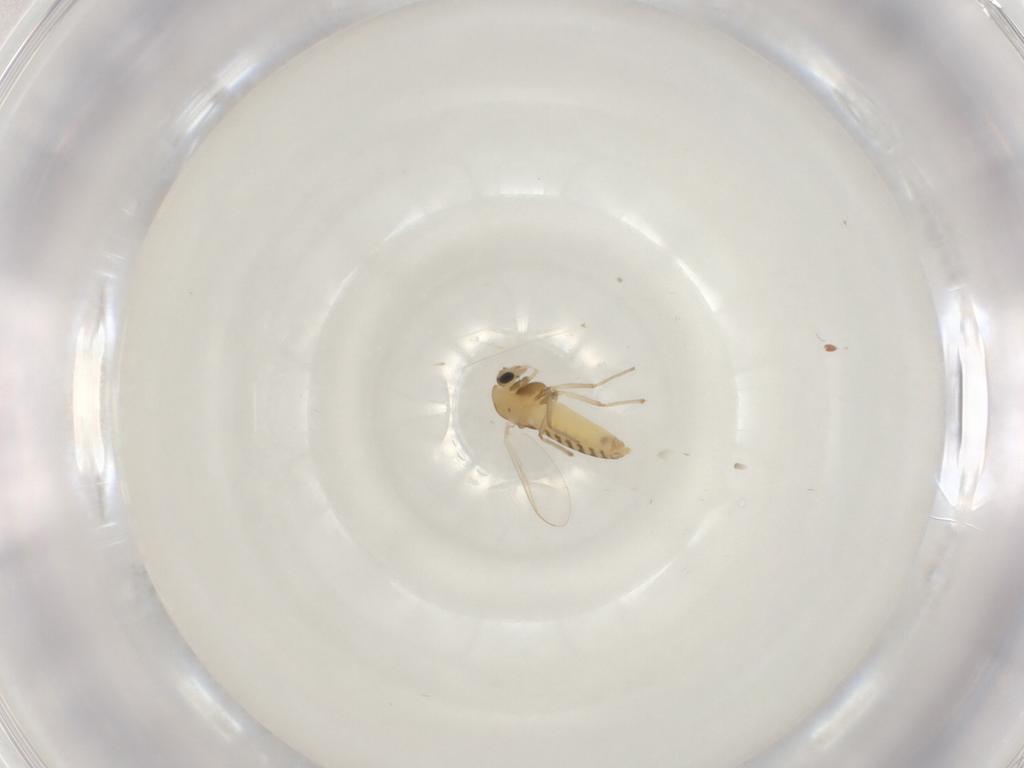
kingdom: Animalia
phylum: Arthropoda
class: Insecta
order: Diptera
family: Chironomidae
